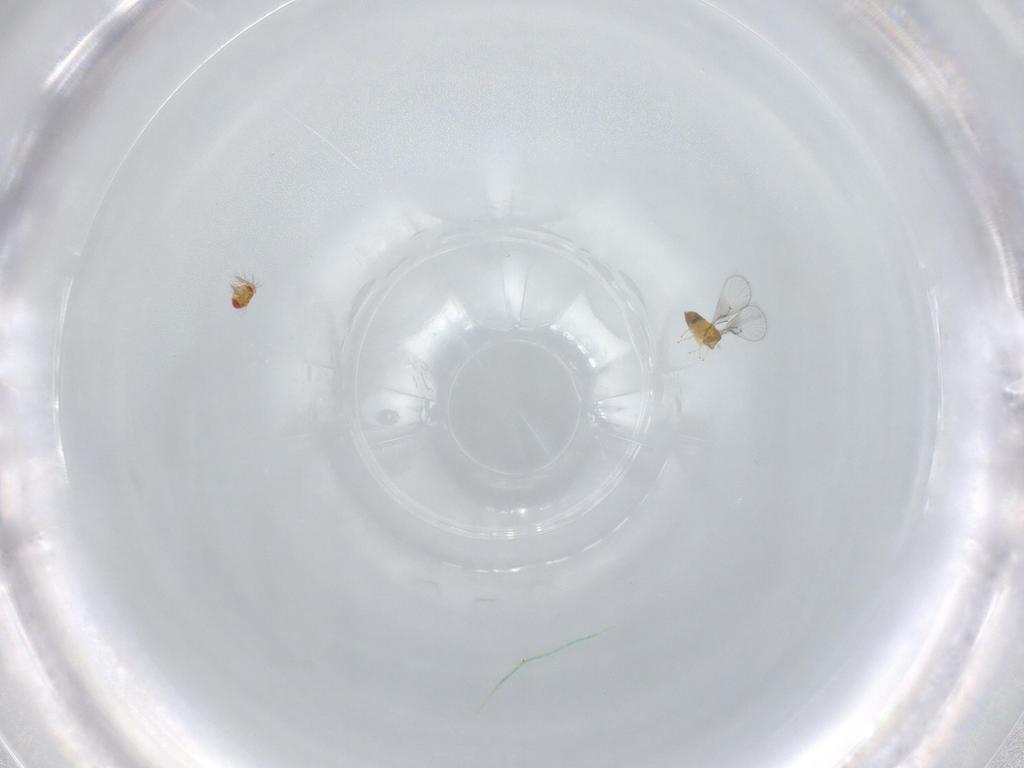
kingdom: Animalia
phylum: Arthropoda
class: Insecta
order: Hymenoptera
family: Trichogrammatidae
